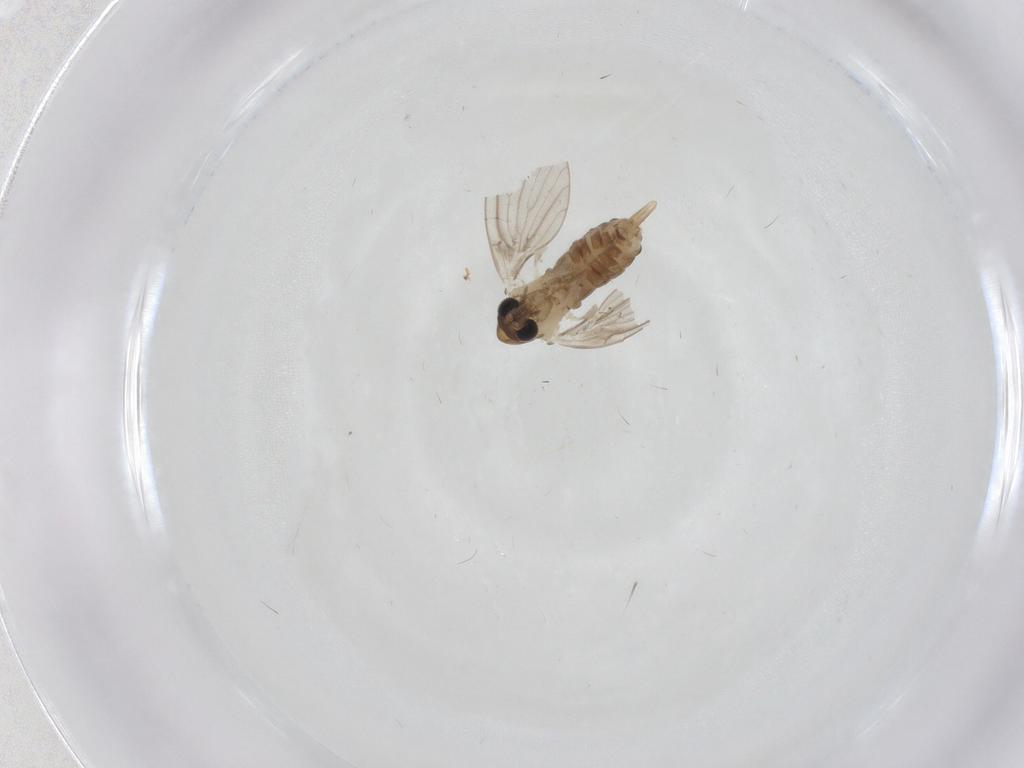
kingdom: Animalia
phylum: Arthropoda
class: Insecta
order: Diptera
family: Psychodidae
